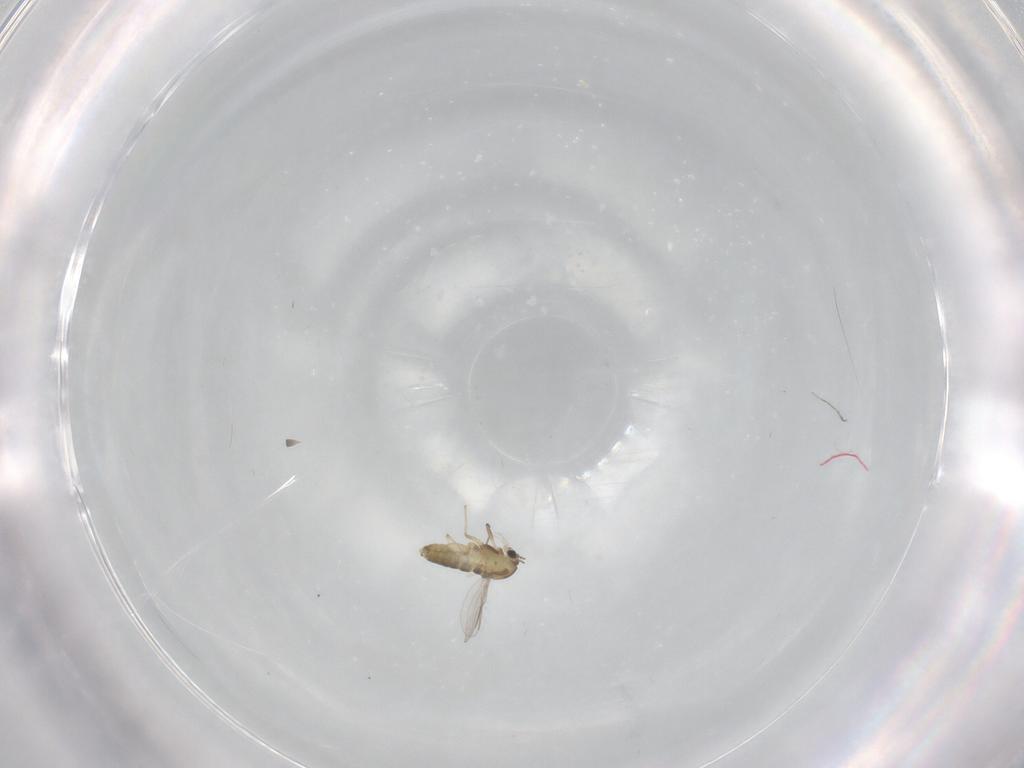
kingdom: Animalia
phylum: Arthropoda
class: Insecta
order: Diptera
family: Chironomidae
